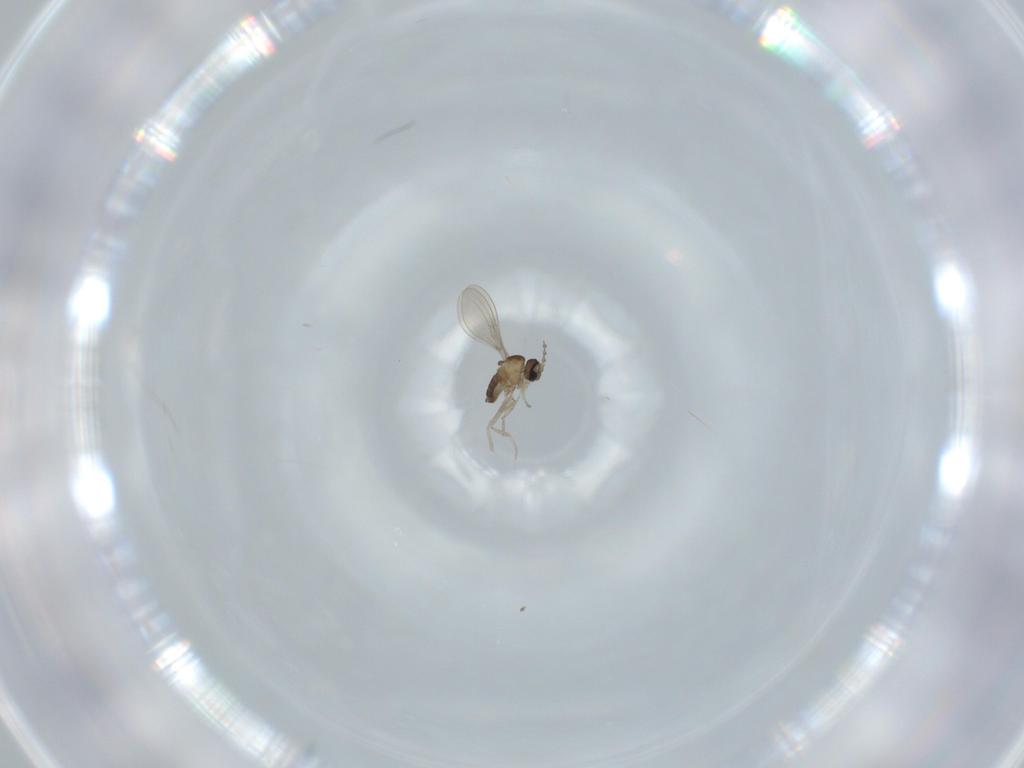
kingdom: Animalia
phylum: Arthropoda
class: Insecta
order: Diptera
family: Cecidomyiidae
